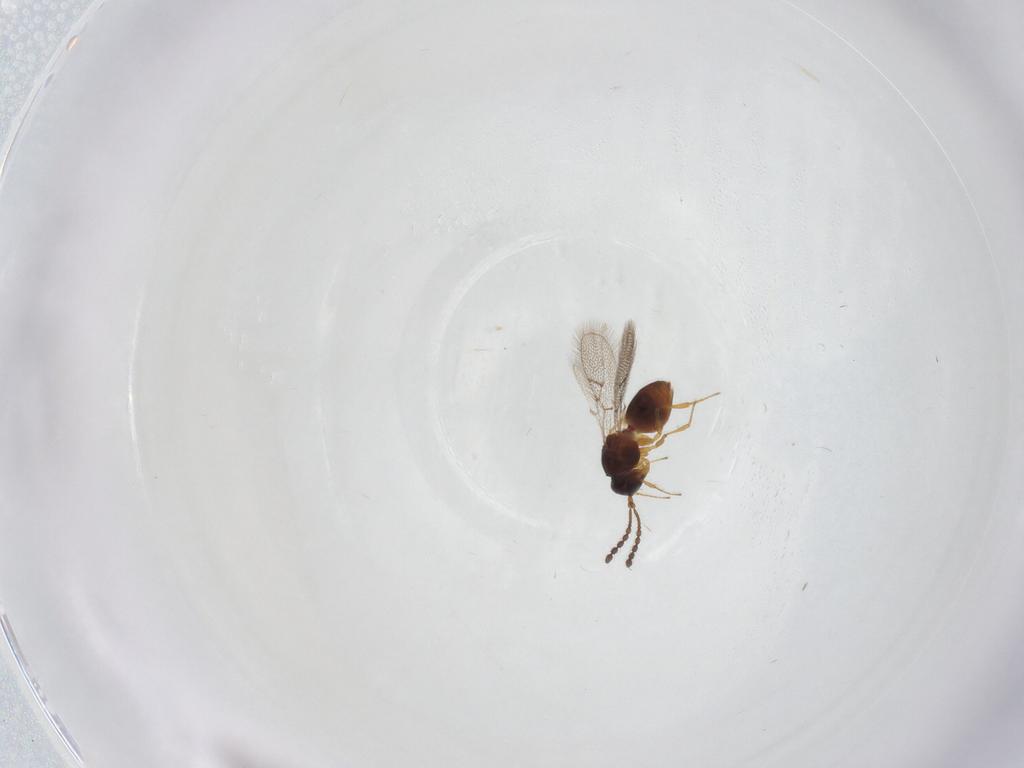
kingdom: Animalia
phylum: Arthropoda
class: Insecta
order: Hymenoptera
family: Figitidae
